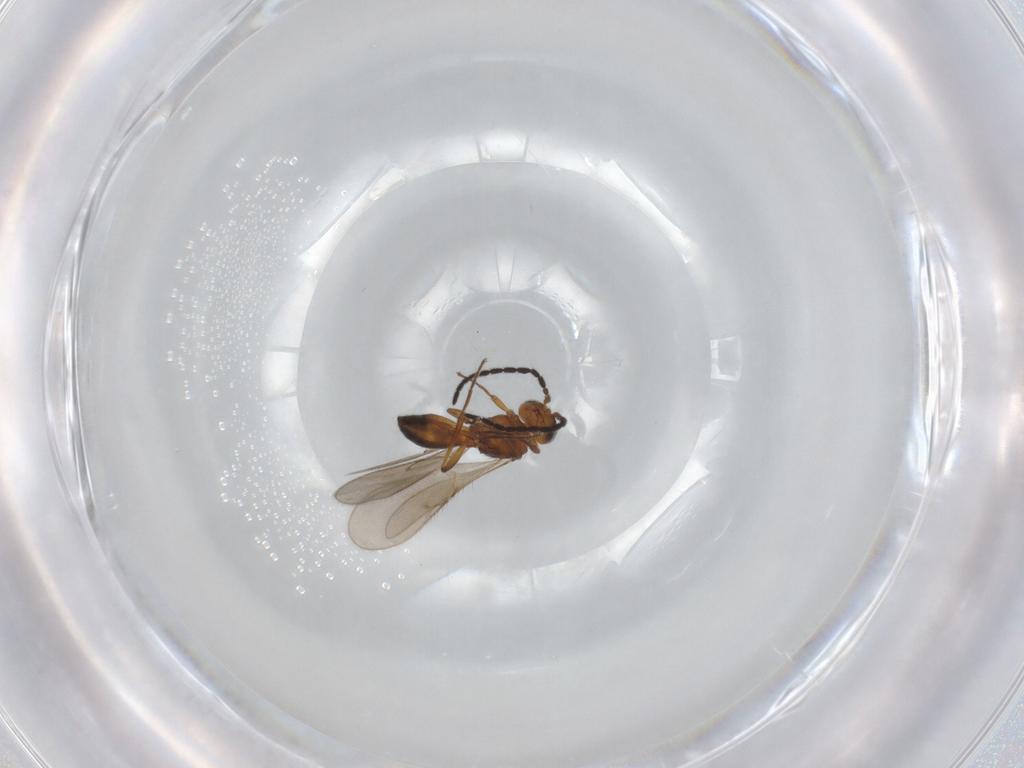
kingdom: Animalia
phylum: Arthropoda
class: Insecta
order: Hymenoptera
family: Scelionidae
